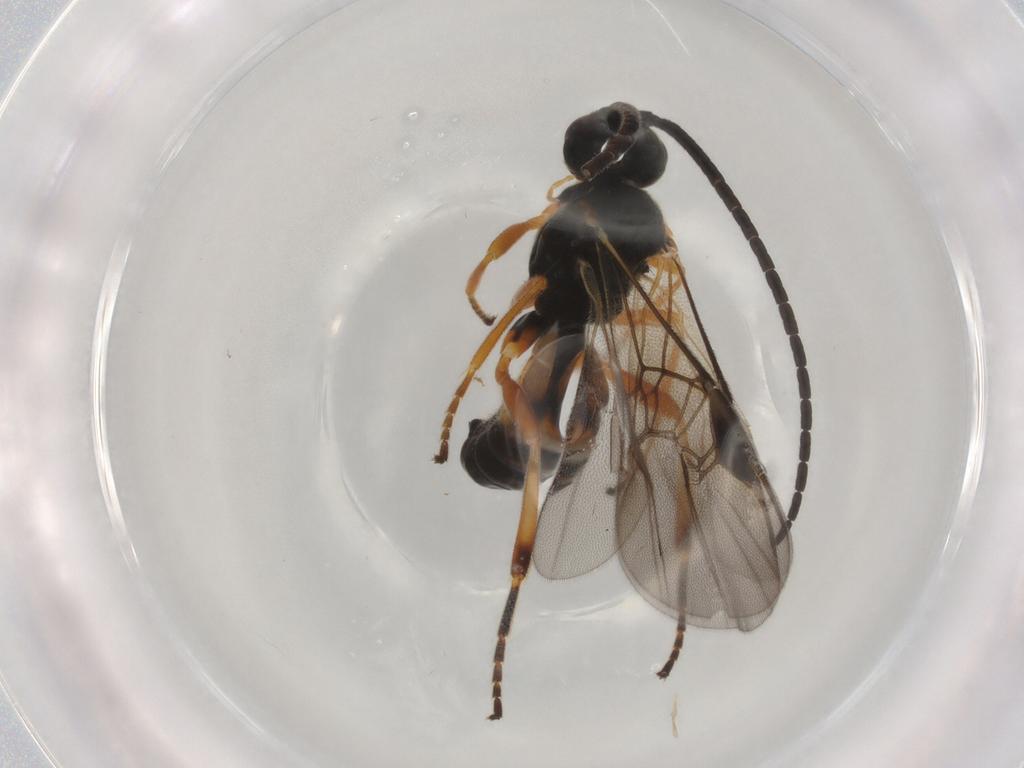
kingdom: Animalia
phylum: Arthropoda
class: Insecta
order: Hymenoptera
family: Braconidae
